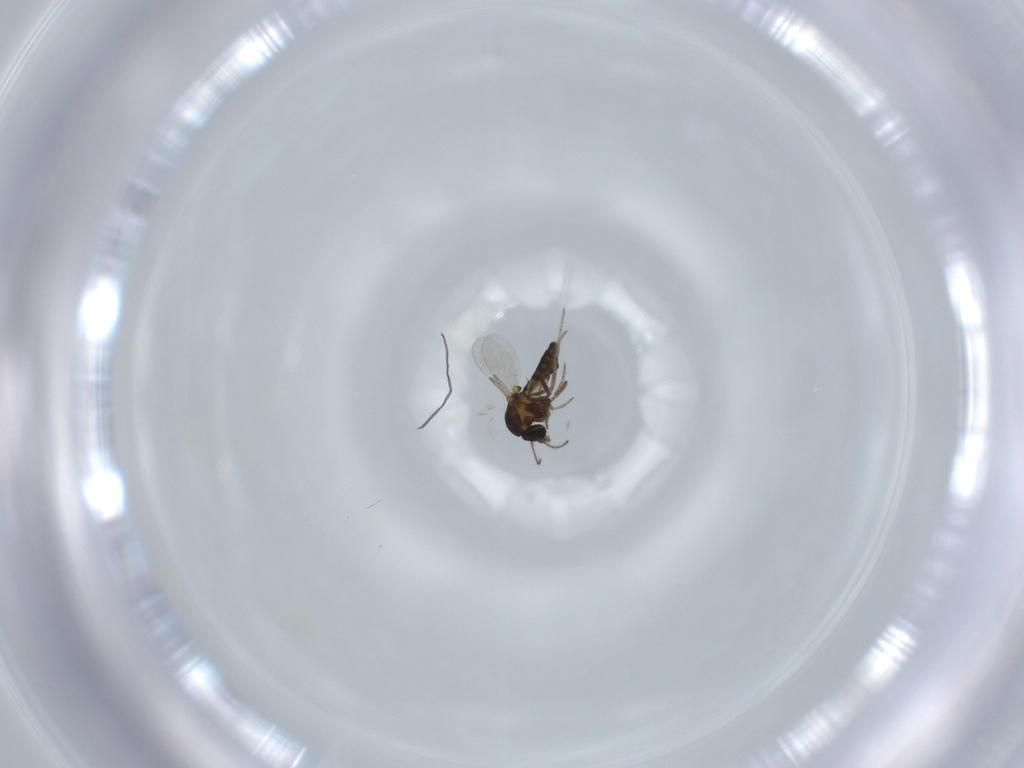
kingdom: Animalia
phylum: Arthropoda
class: Insecta
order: Diptera
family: Ceratopogonidae
